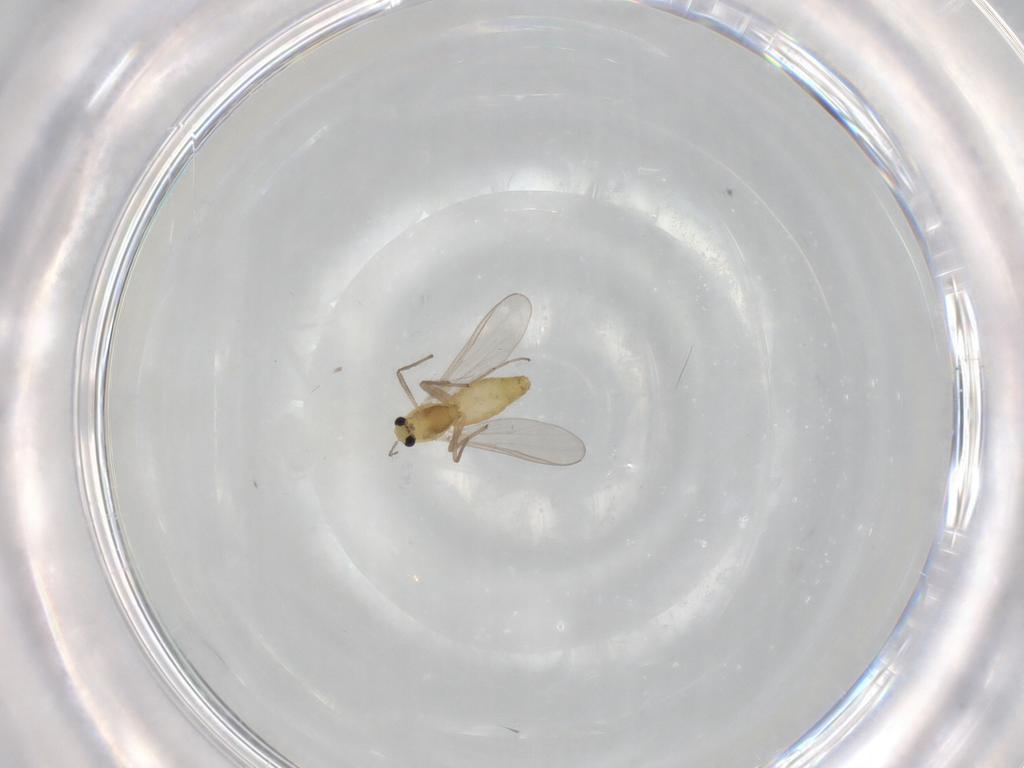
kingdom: Animalia
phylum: Arthropoda
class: Insecta
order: Diptera
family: Chironomidae
